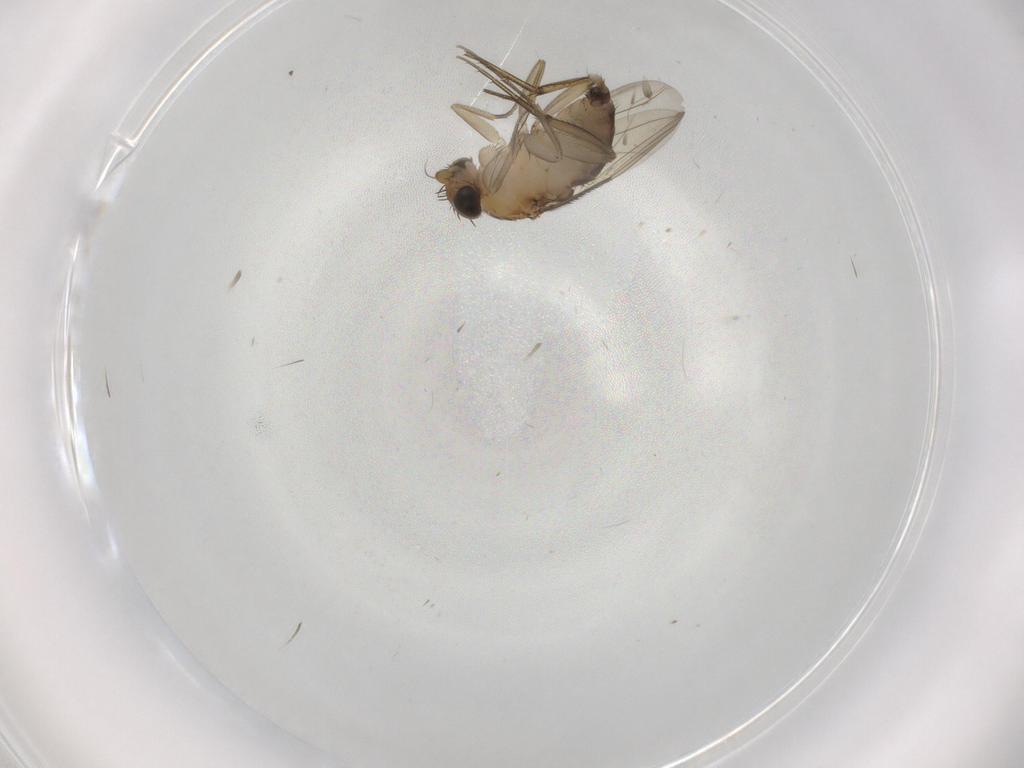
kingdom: Animalia
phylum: Arthropoda
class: Insecta
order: Diptera
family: Phoridae
